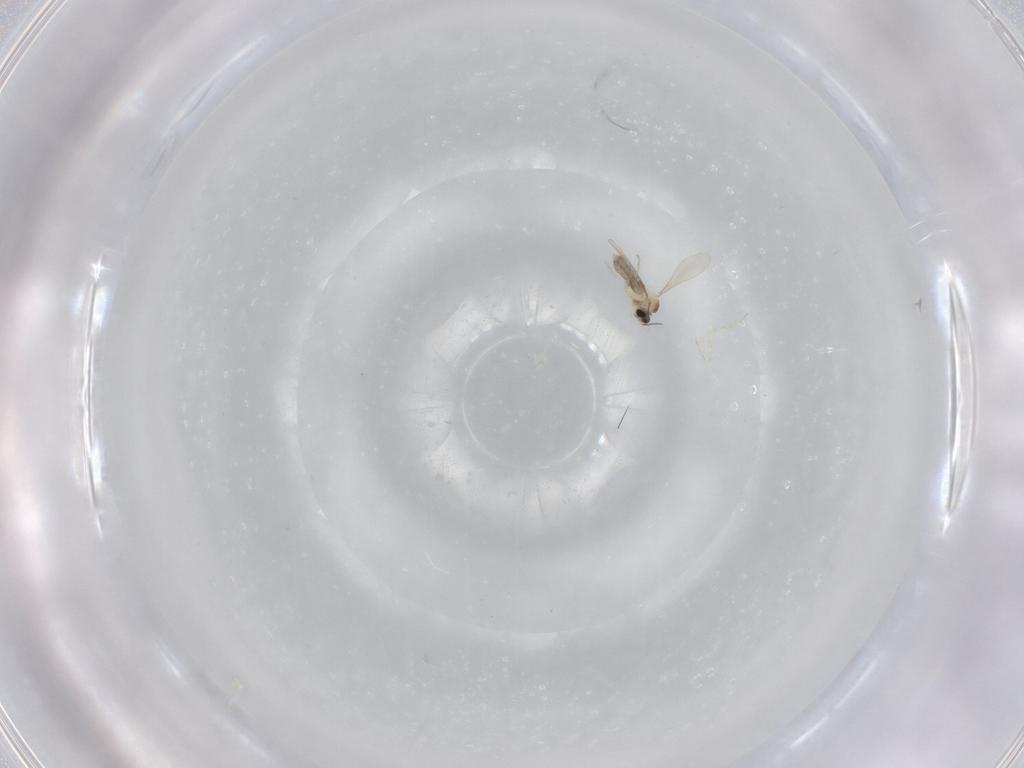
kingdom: Animalia
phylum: Arthropoda
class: Insecta
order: Diptera
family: Cecidomyiidae
